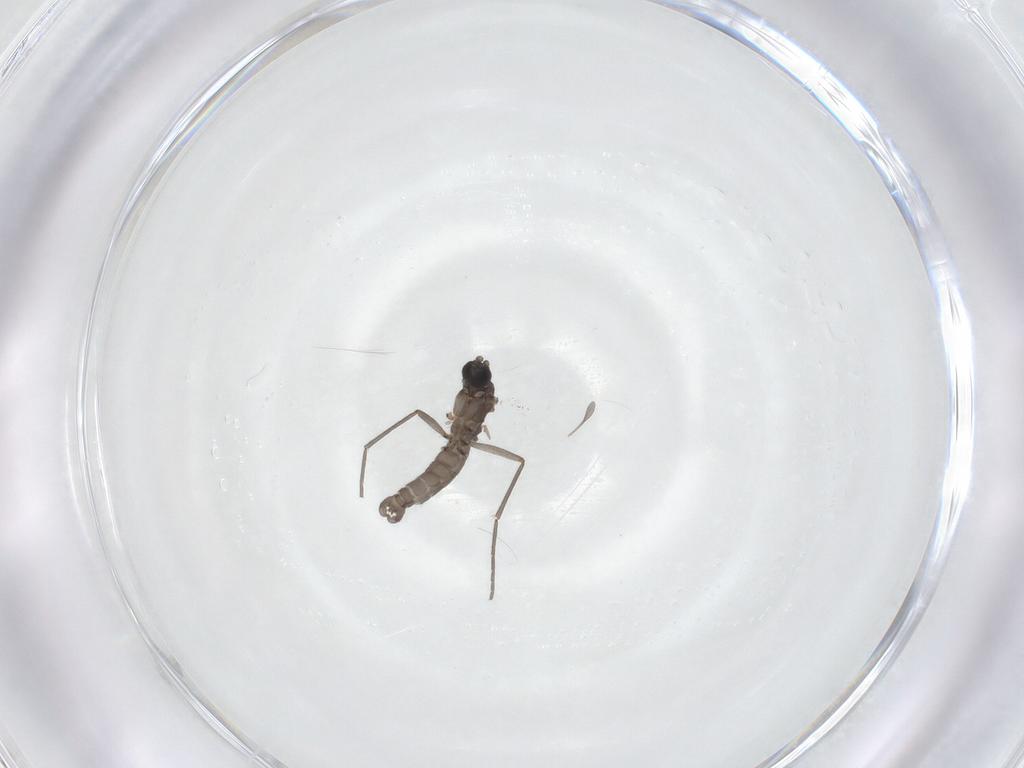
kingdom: Animalia
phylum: Arthropoda
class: Insecta
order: Diptera
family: Sciaridae
